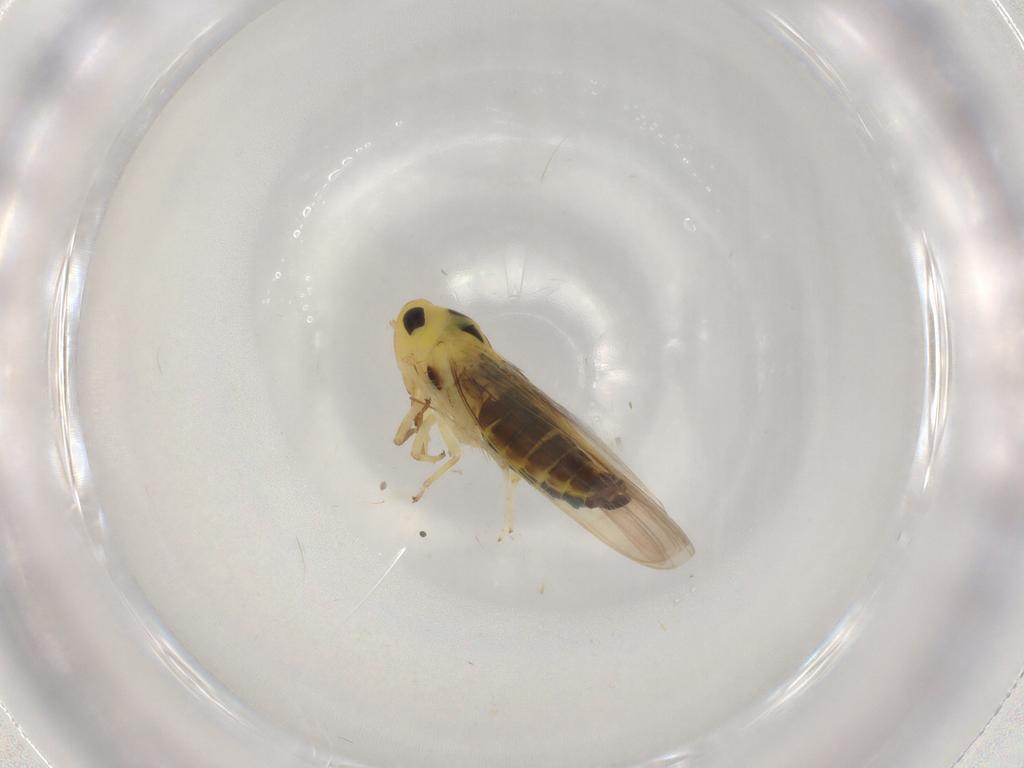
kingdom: Animalia
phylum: Arthropoda
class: Insecta
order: Hemiptera
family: Cicadellidae
